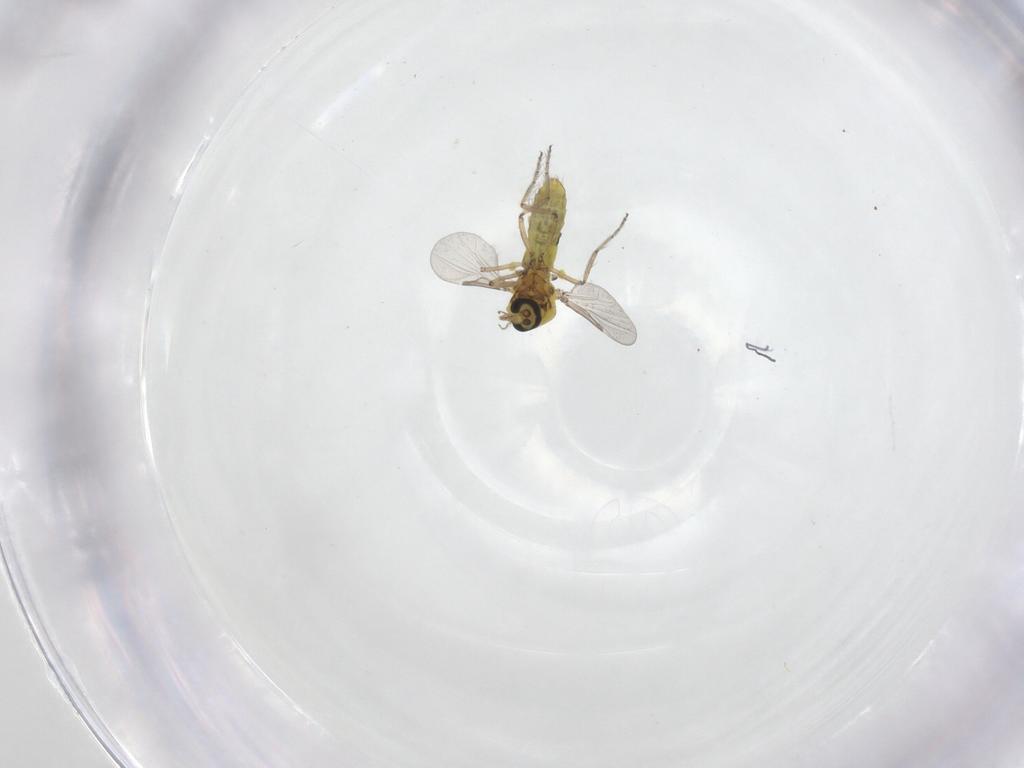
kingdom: Animalia
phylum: Arthropoda
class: Insecta
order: Diptera
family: Ceratopogonidae
